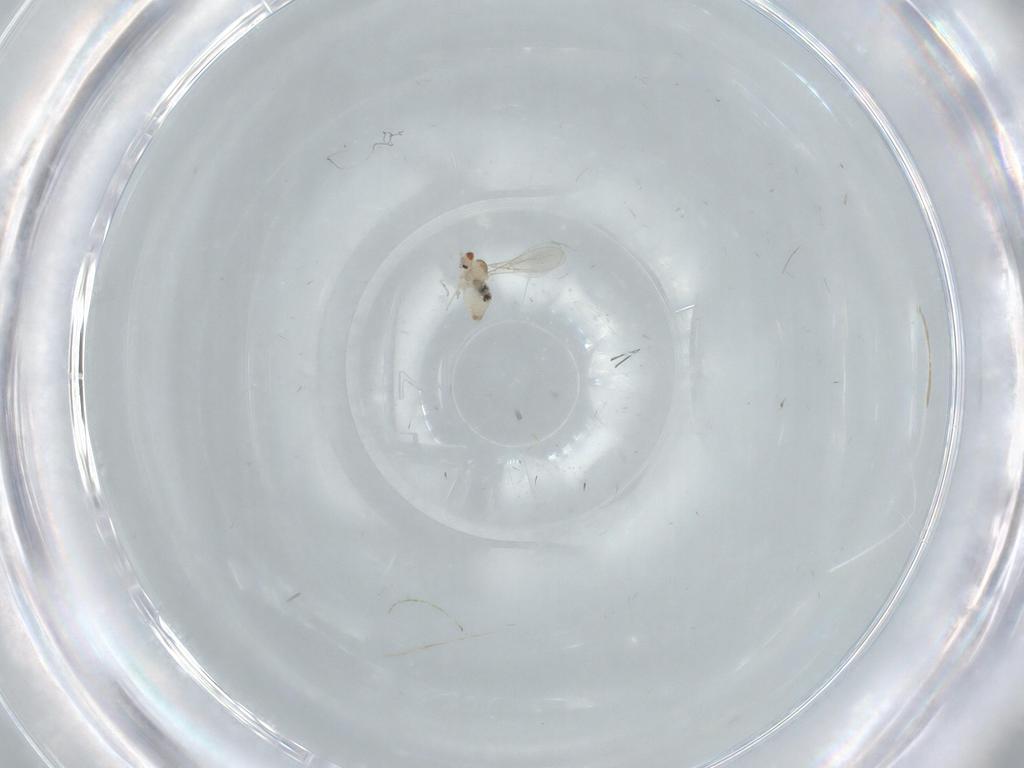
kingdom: Animalia
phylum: Arthropoda
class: Insecta
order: Diptera
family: Cecidomyiidae
